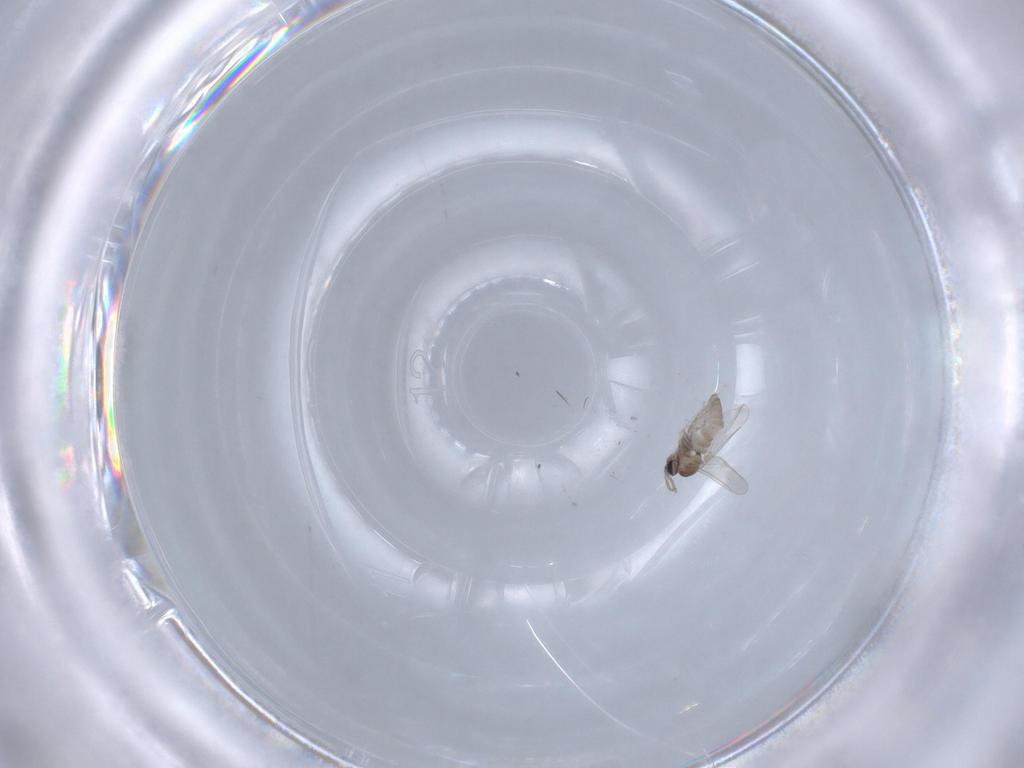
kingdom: Animalia
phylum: Arthropoda
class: Insecta
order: Diptera
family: Cecidomyiidae
